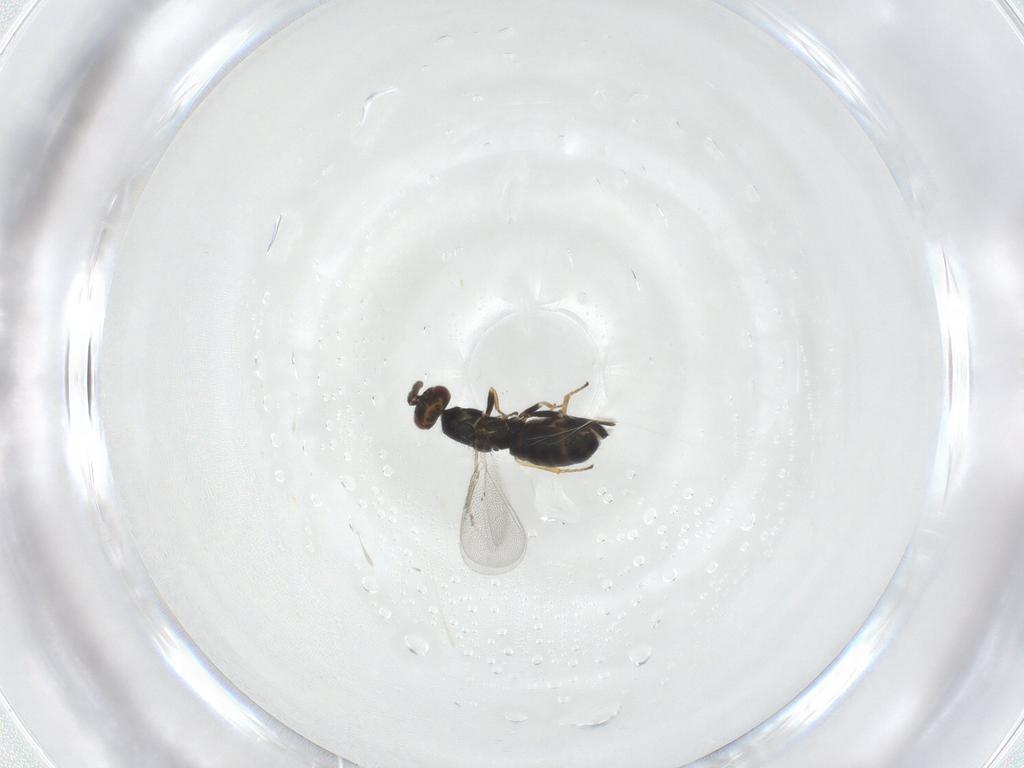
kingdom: Animalia
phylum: Arthropoda
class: Insecta
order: Hymenoptera
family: Eulophidae
